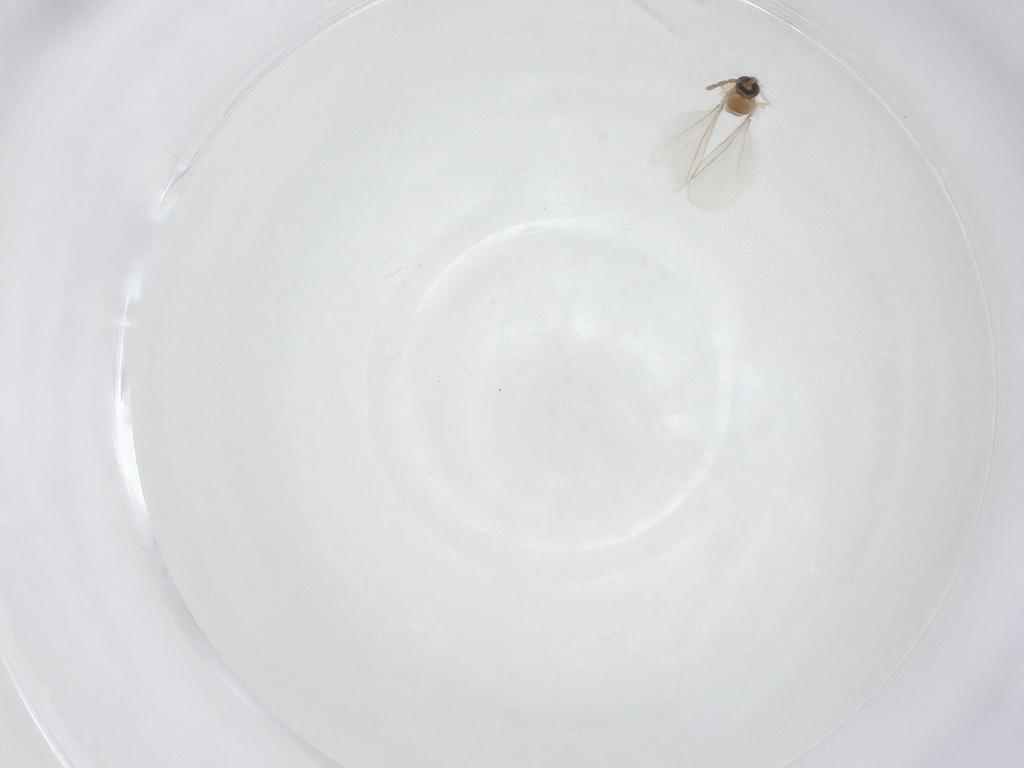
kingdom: Animalia
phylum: Arthropoda
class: Insecta
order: Diptera
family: Cecidomyiidae
